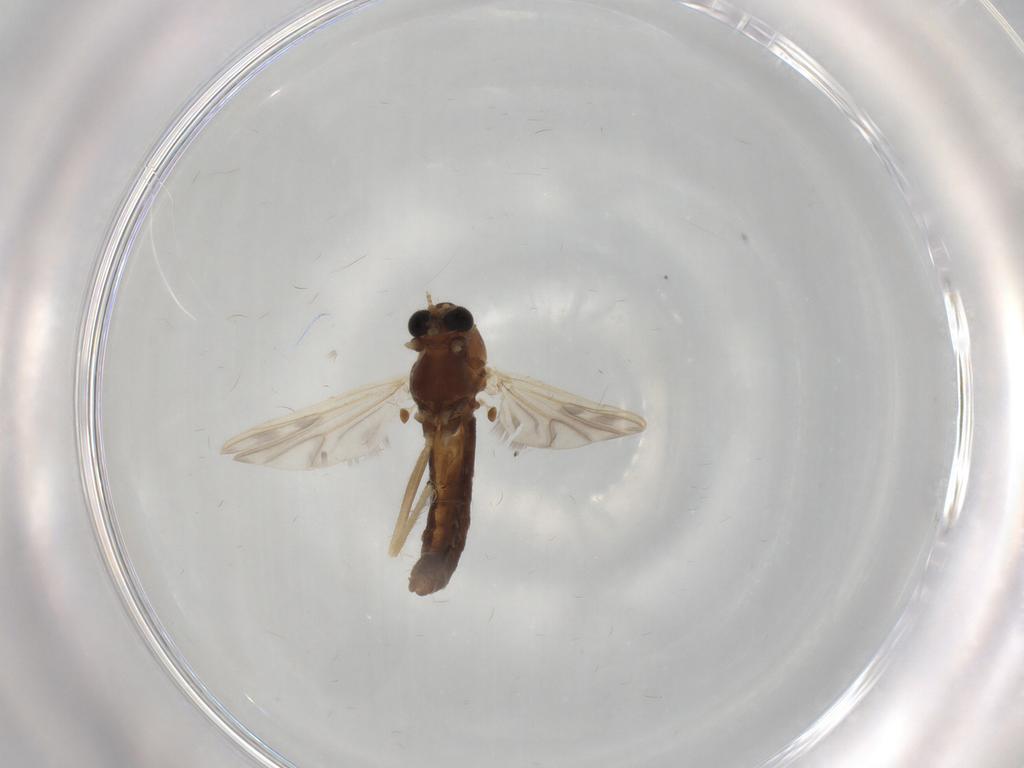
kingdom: Animalia
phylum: Arthropoda
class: Insecta
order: Diptera
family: Chironomidae
